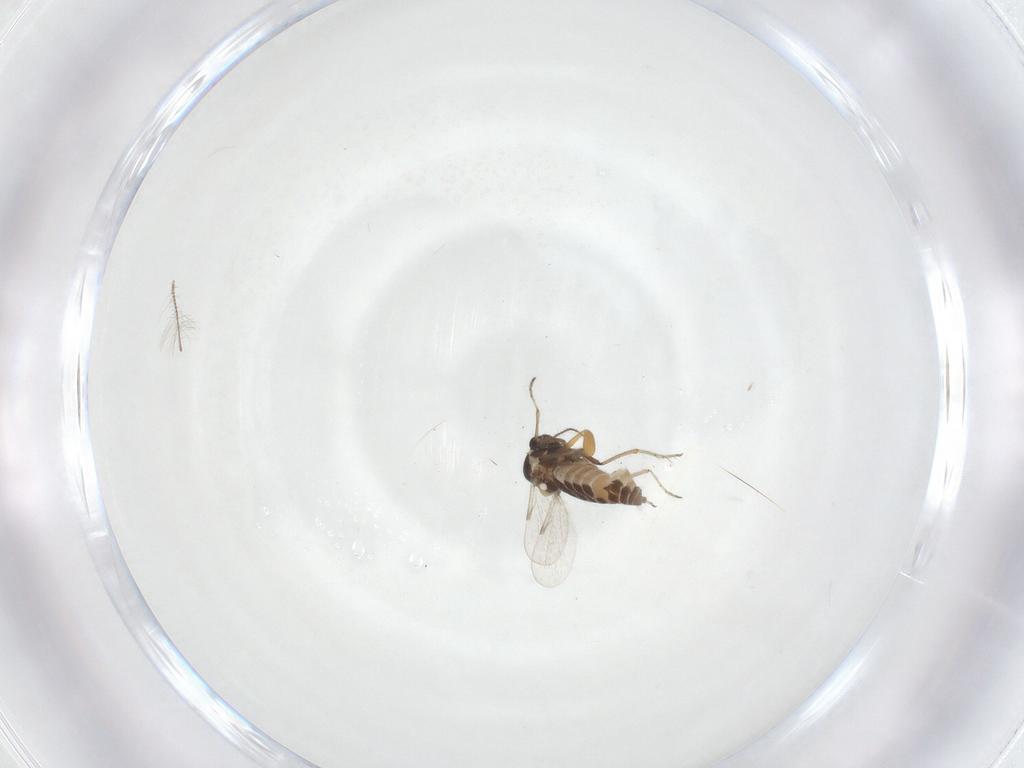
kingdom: Animalia
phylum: Arthropoda
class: Insecta
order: Diptera
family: Ceratopogonidae
